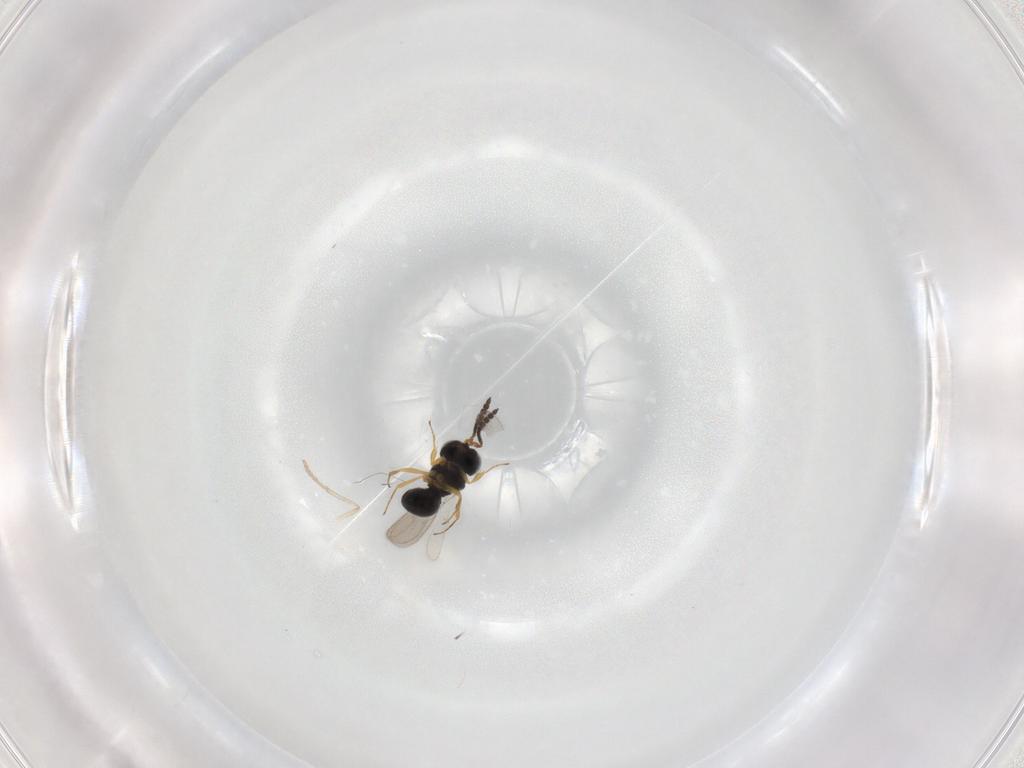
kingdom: Animalia
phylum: Arthropoda
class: Insecta
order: Hymenoptera
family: Scelionidae
